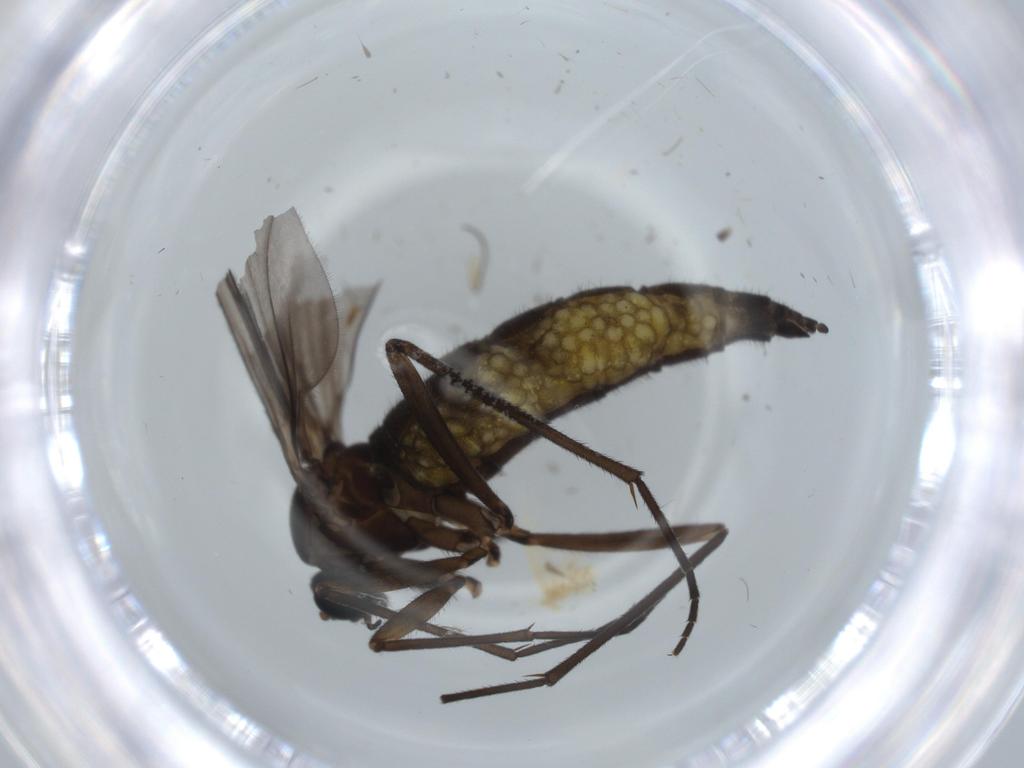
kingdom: Animalia
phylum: Arthropoda
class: Insecta
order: Diptera
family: Sciaridae
